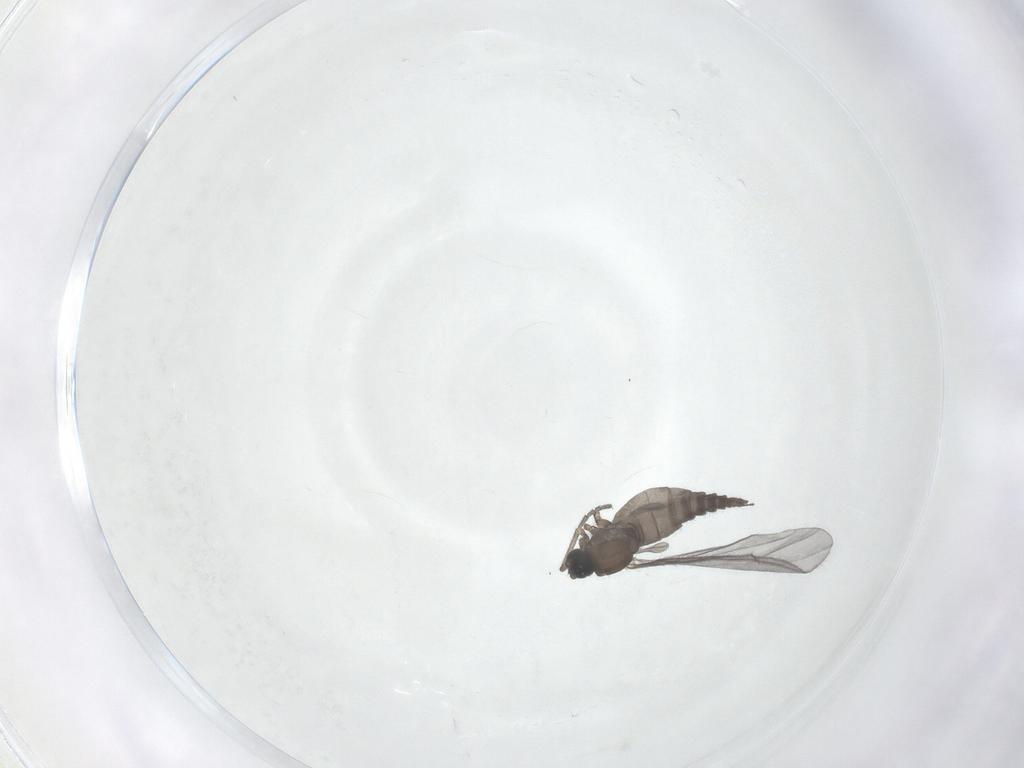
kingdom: Animalia
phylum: Arthropoda
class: Insecta
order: Diptera
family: Sciaridae
